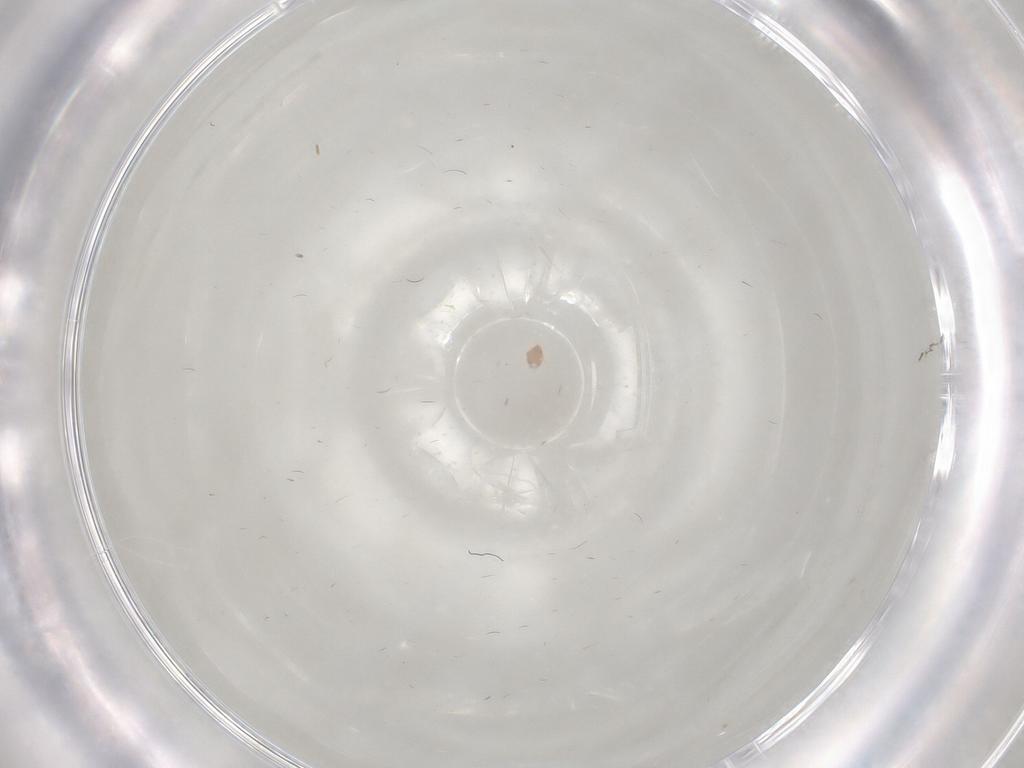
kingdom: Animalia
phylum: Arthropoda
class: Insecta
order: Diptera
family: Cecidomyiidae
